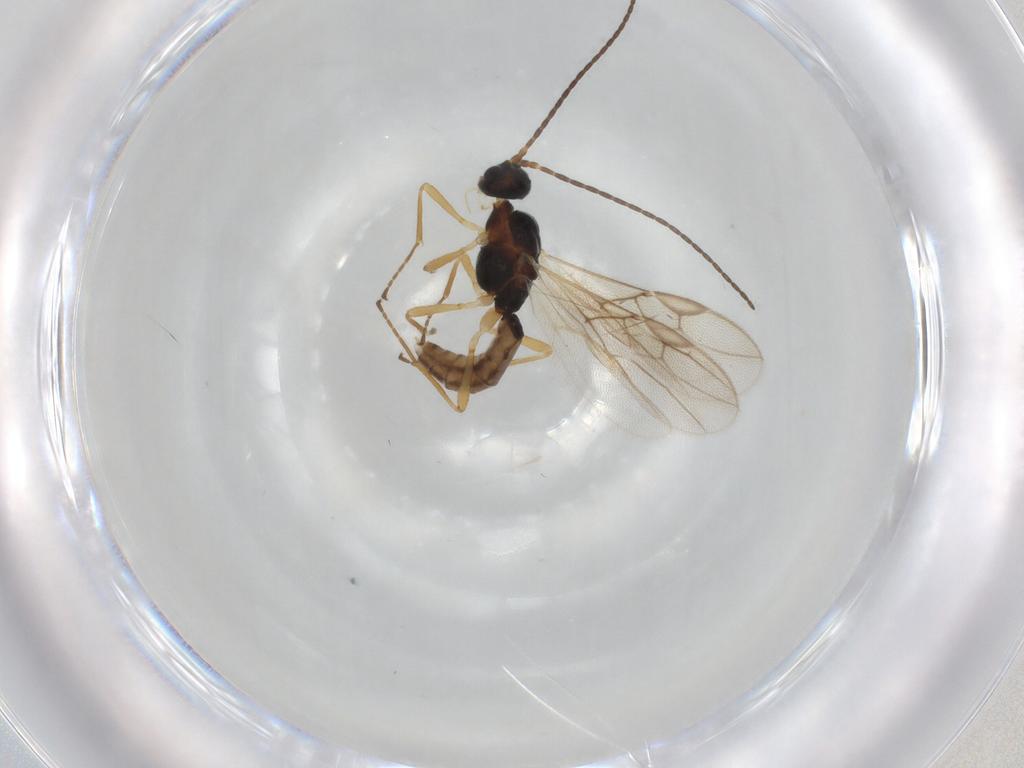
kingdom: Animalia
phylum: Arthropoda
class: Insecta
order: Hymenoptera
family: Braconidae
